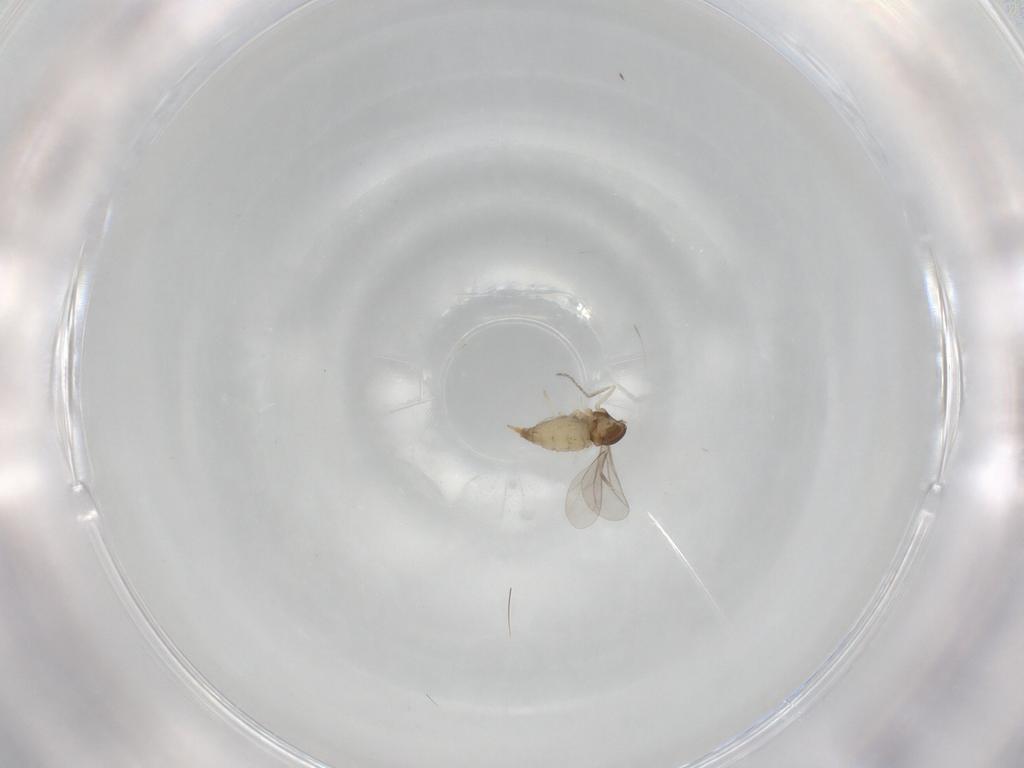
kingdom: Animalia
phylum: Arthropoda
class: Insecta
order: Diptera
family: Cecidomyiidae
